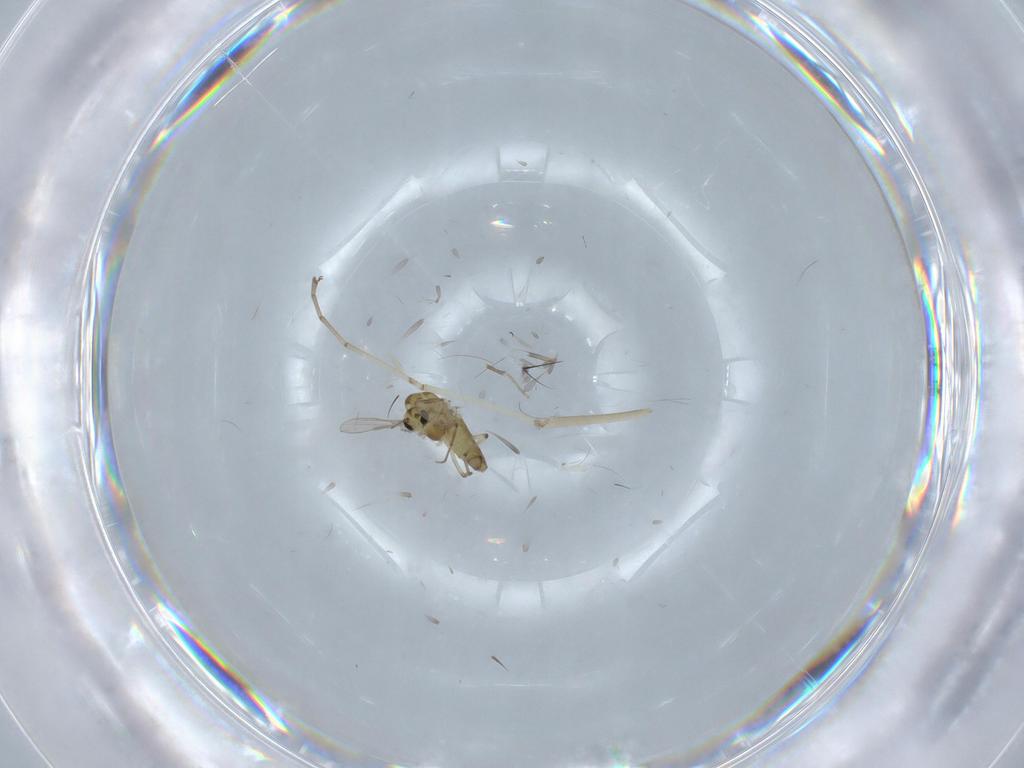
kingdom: Animalia
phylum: Arthropoda
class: Insecta
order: Diptera
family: Chironomidae
